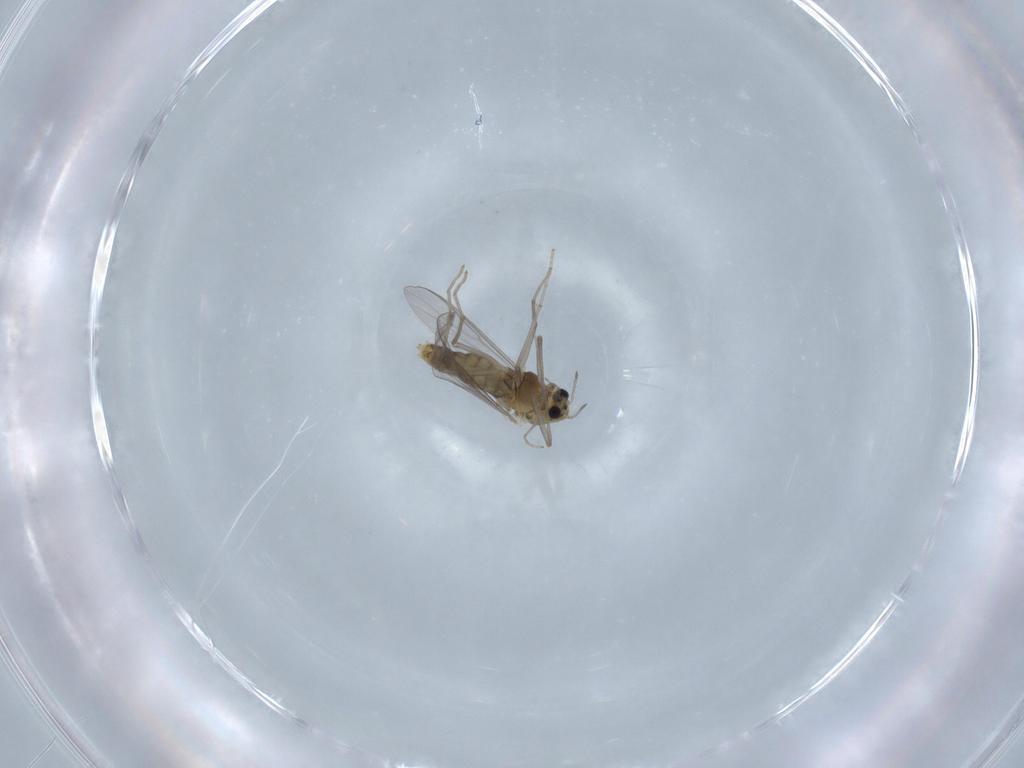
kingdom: Animalia
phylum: Arthropoda
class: Insecta
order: Diptera
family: Chironomidae
